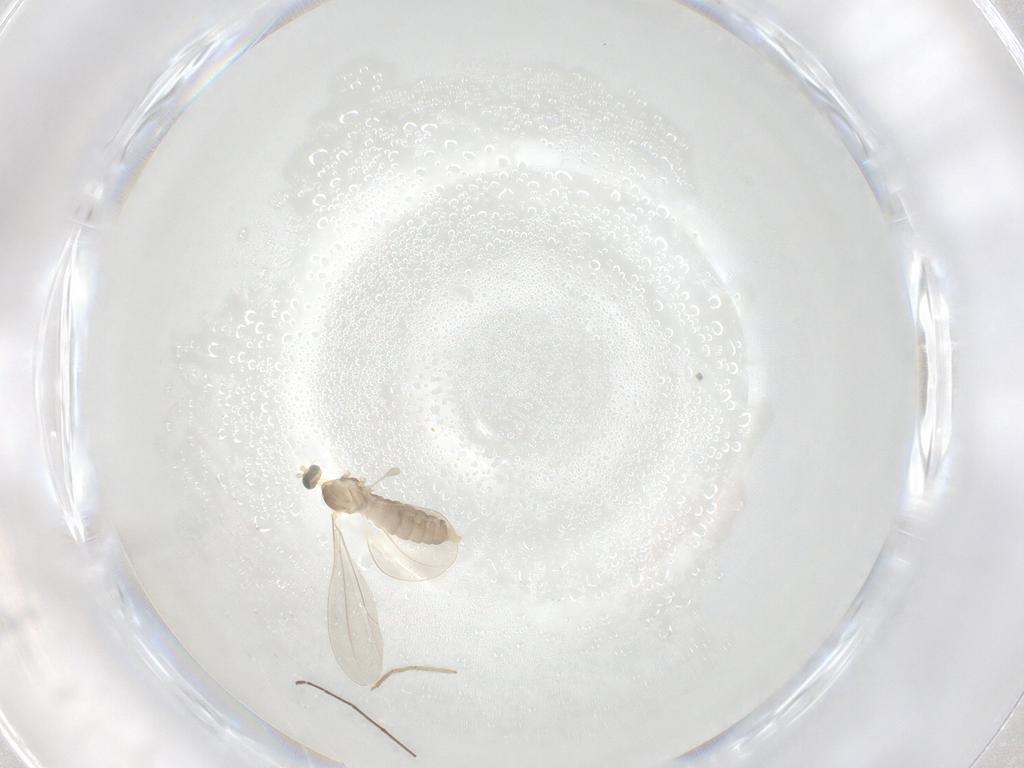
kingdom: Animalia
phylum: Arthropoda
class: Insecta
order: Diptera
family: Cecidomyiidae
